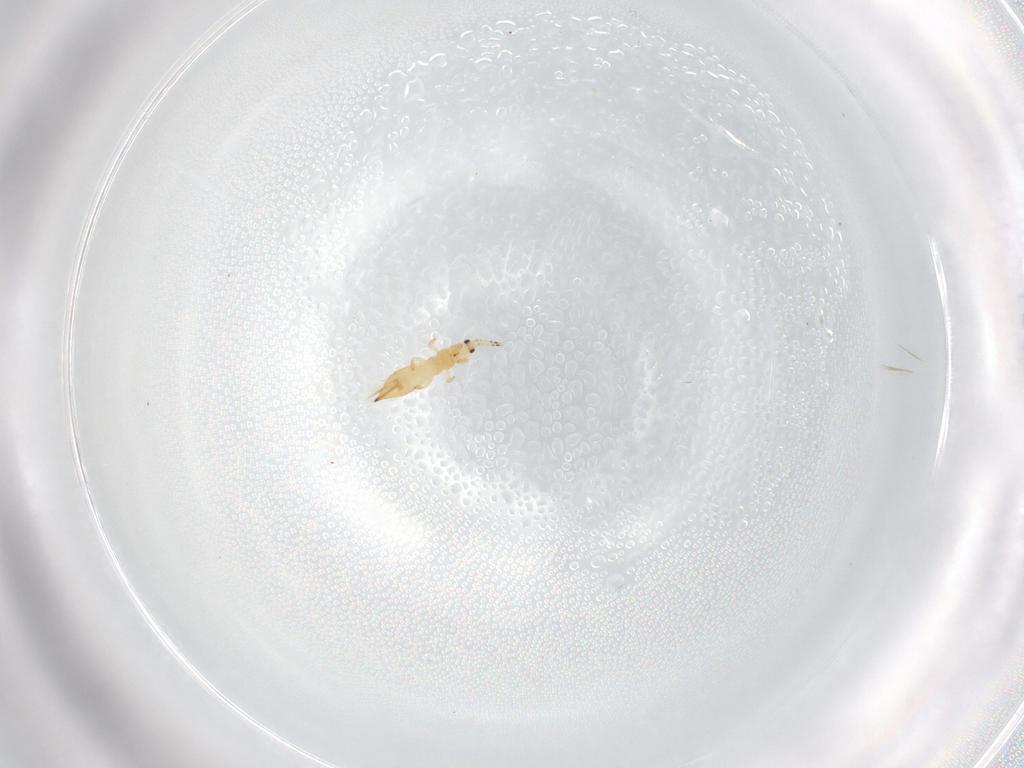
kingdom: Animalia
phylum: Arthropoda
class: Insecta
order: Thysanoptera
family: Thripidae
